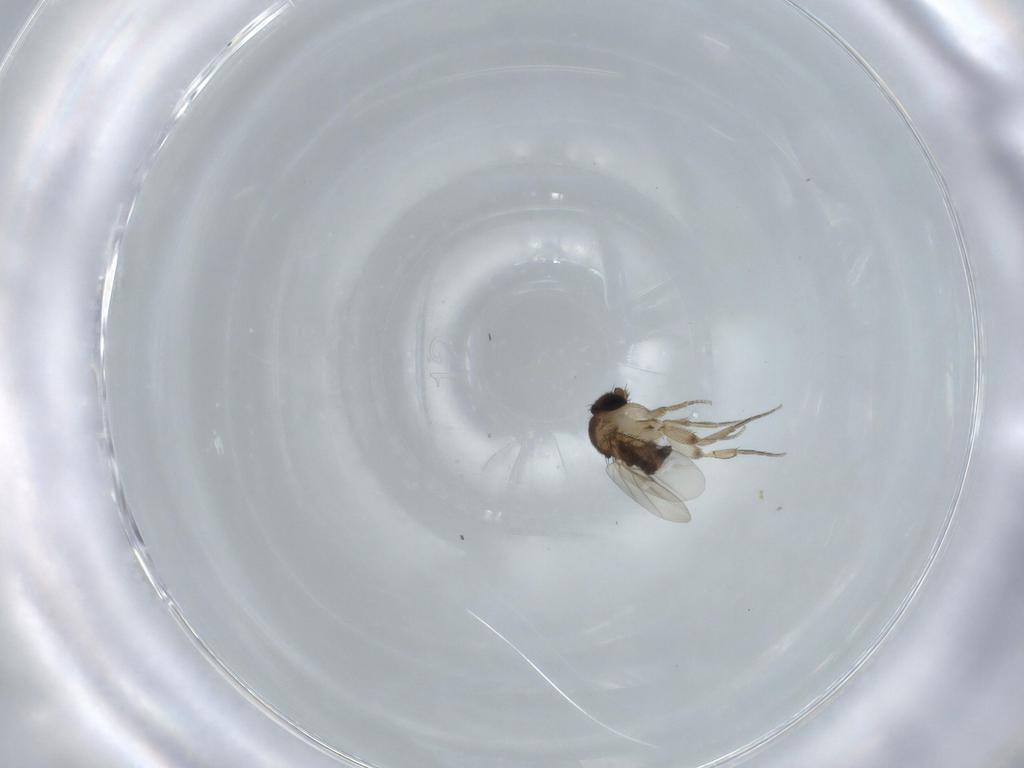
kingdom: Animalia
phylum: Arthropoda
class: Insecta
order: Diptera
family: Phoridae
